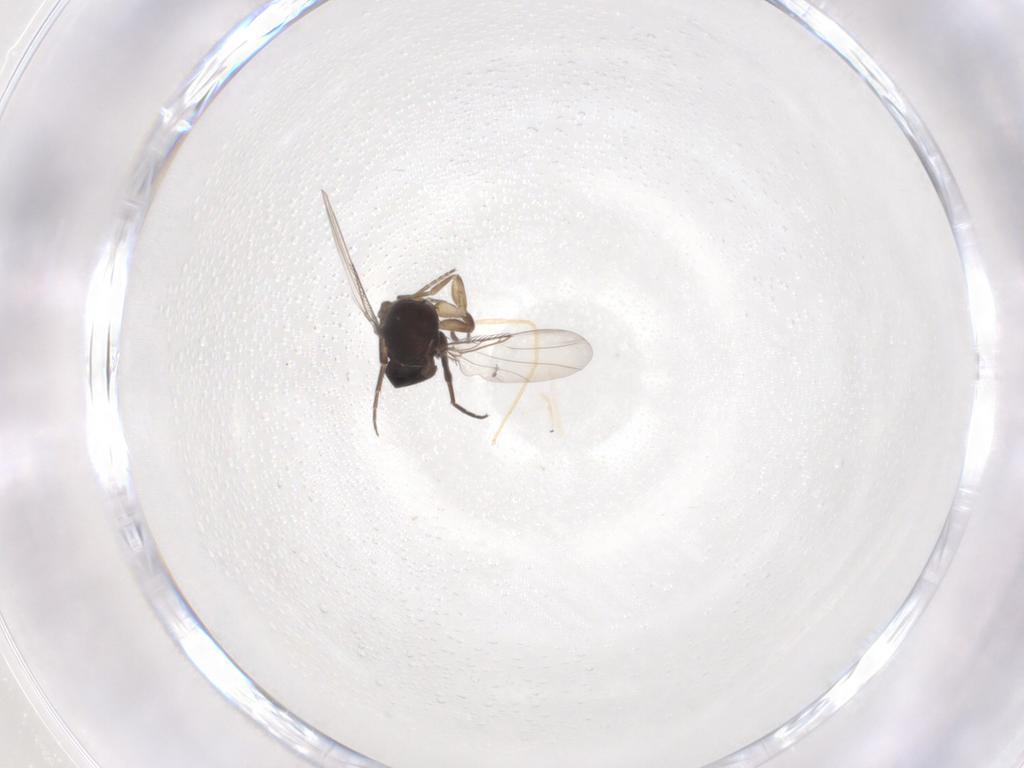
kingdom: Animalia
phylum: Arthropoda
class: Insecta
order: Diptera
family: Phoridae
